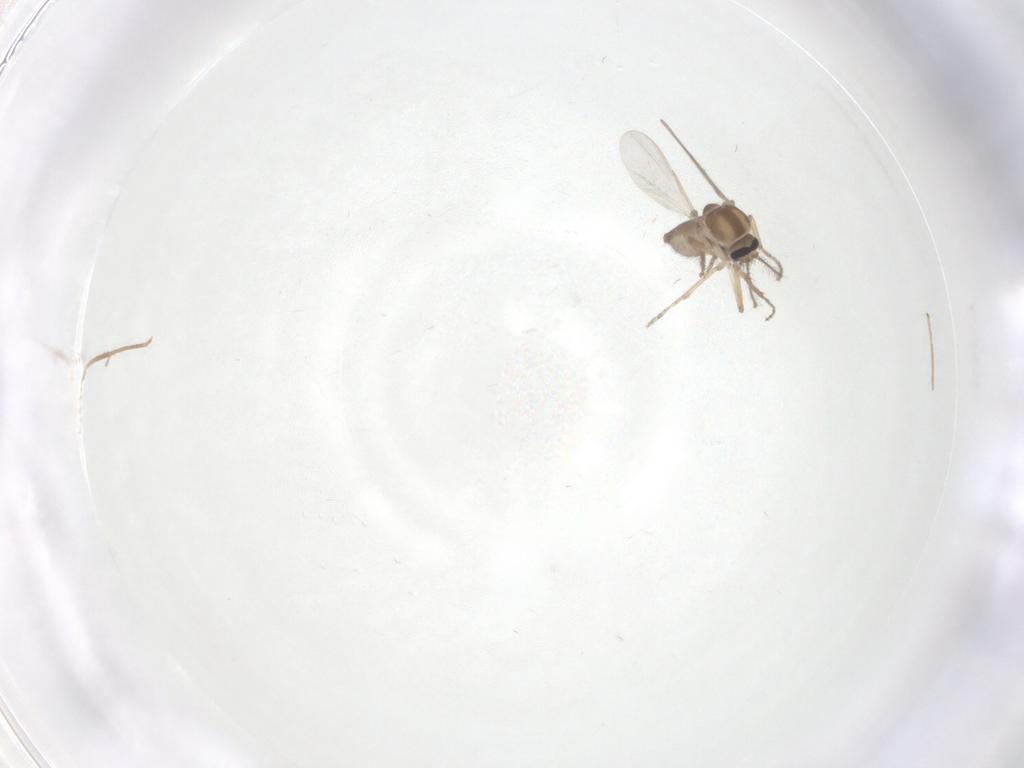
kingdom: Animalia
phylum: Arthropoda
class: Insecta
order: Diptera
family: Ceratopogonidae
